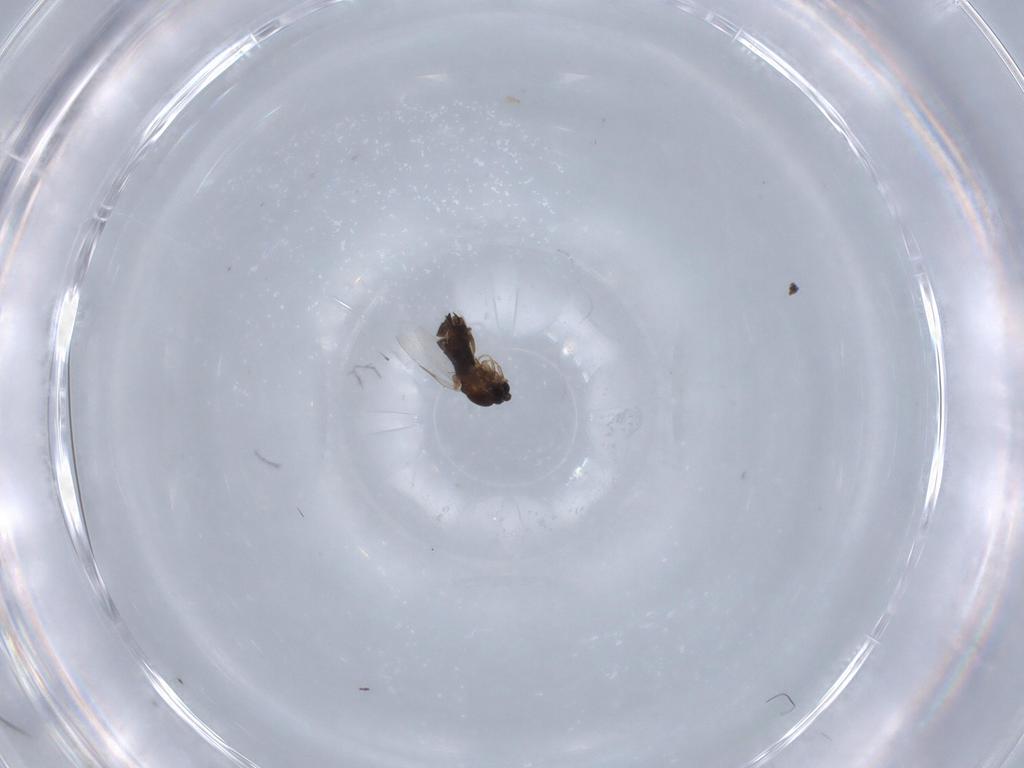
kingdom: Animalia
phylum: Arthropoda
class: Insecta
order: Diptera
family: Scatopsidae
